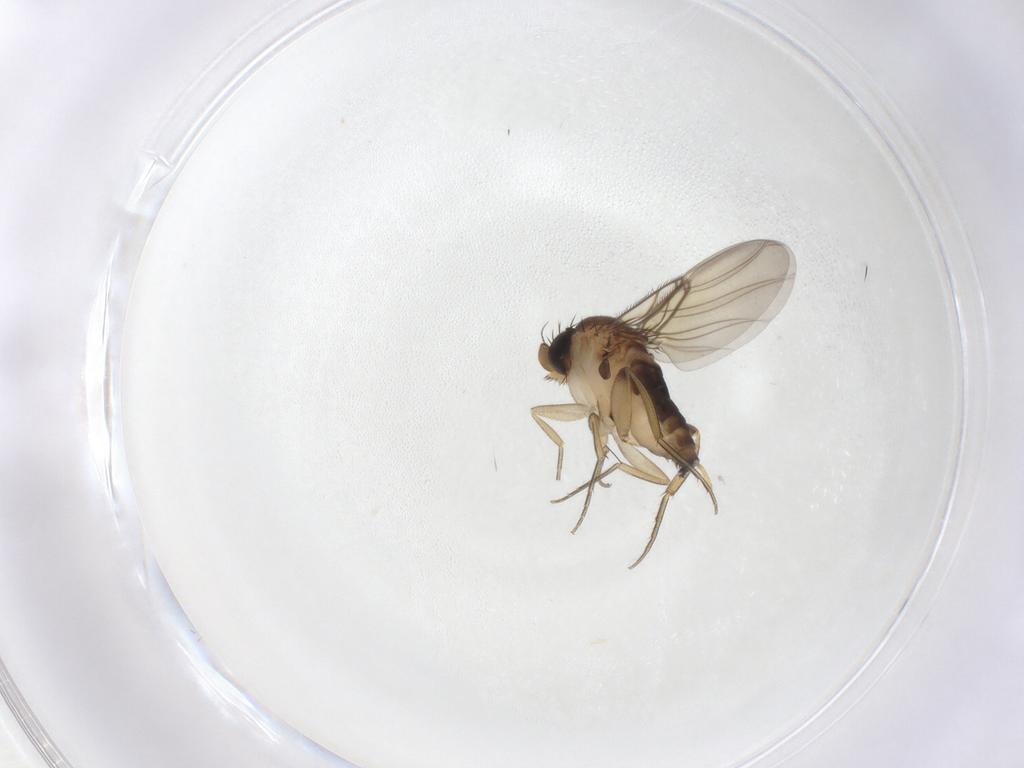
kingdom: Animalia
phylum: Arthropoda
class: Insecta
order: Diptera
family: Phoridae
